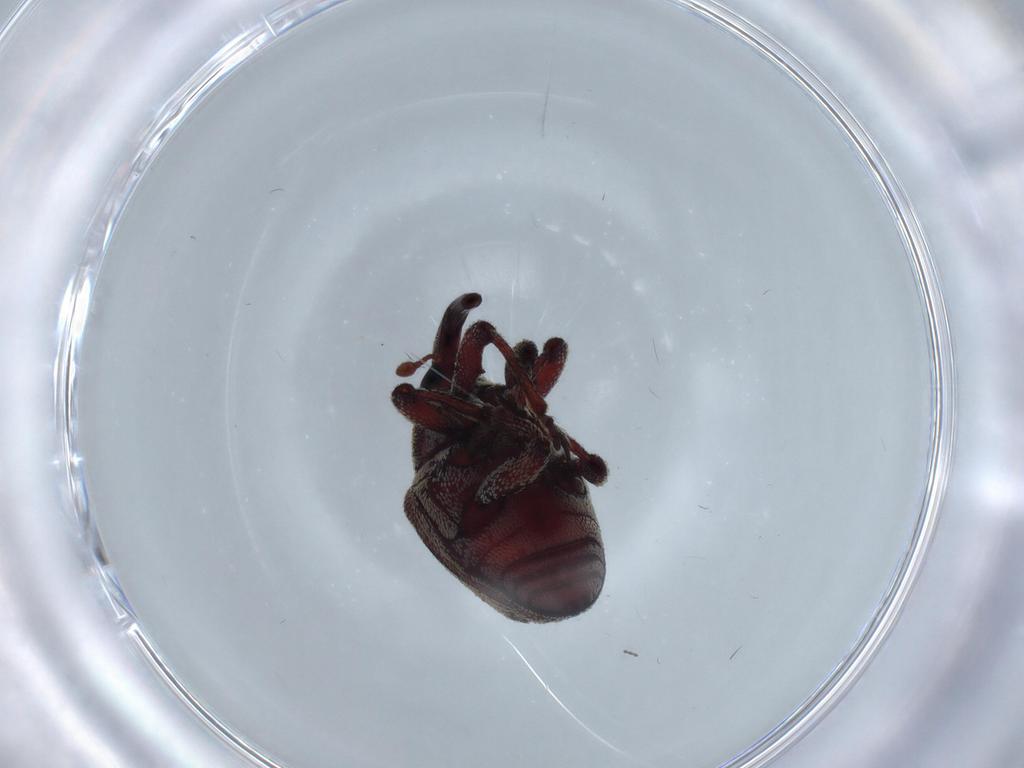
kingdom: Animalia
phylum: Arthropoda
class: Insecta
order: Coleoptera
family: Curculionidae
